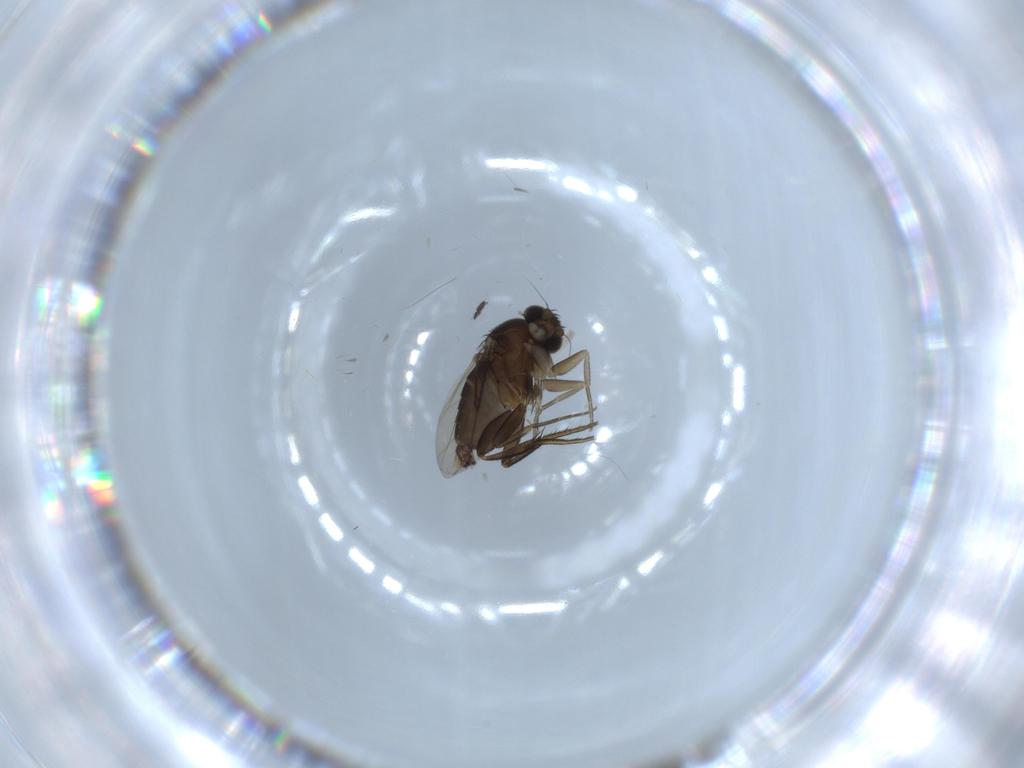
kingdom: Animalia
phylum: Arthropoda
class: Insecta
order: Diptera
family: Phoridae
